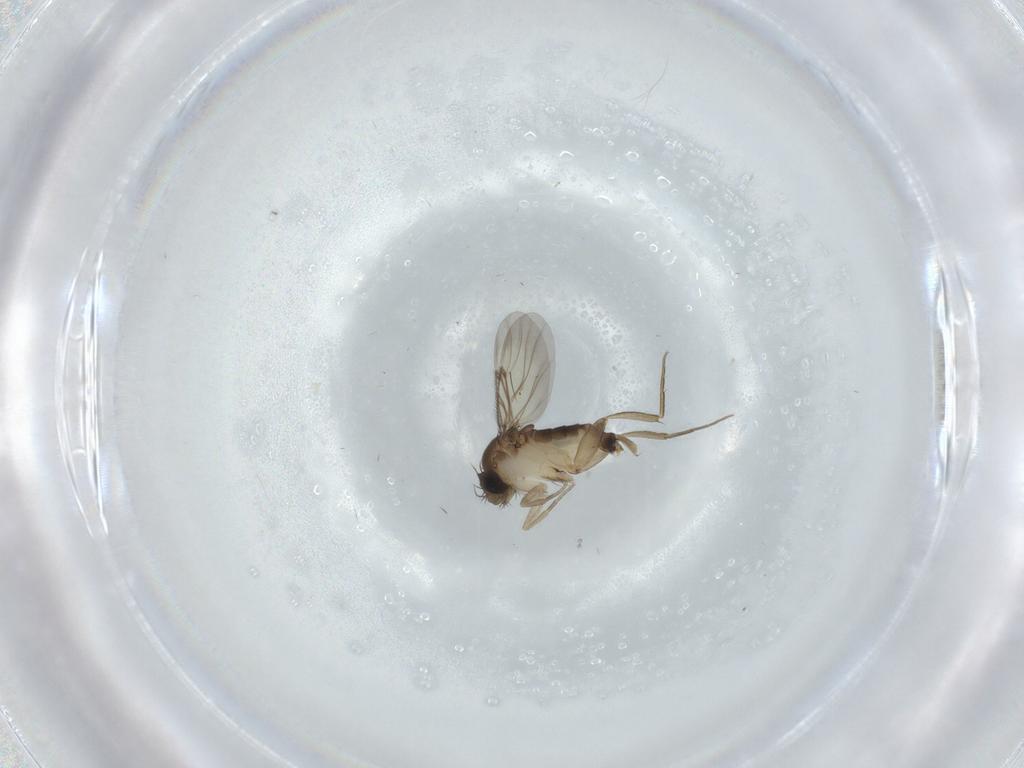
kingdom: Animalia
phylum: Arthropoda
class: Insecta
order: Diptera
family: Phoridae
